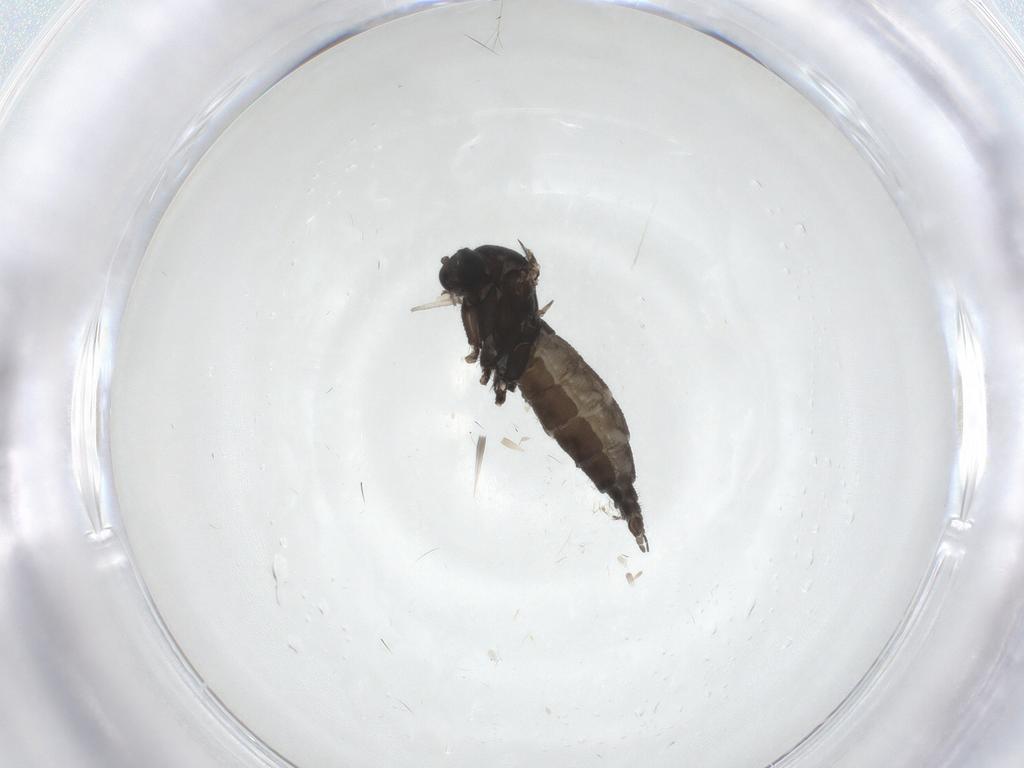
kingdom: Animalia
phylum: Arthropoda
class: Insecta
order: Diptera
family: Sciaridae
